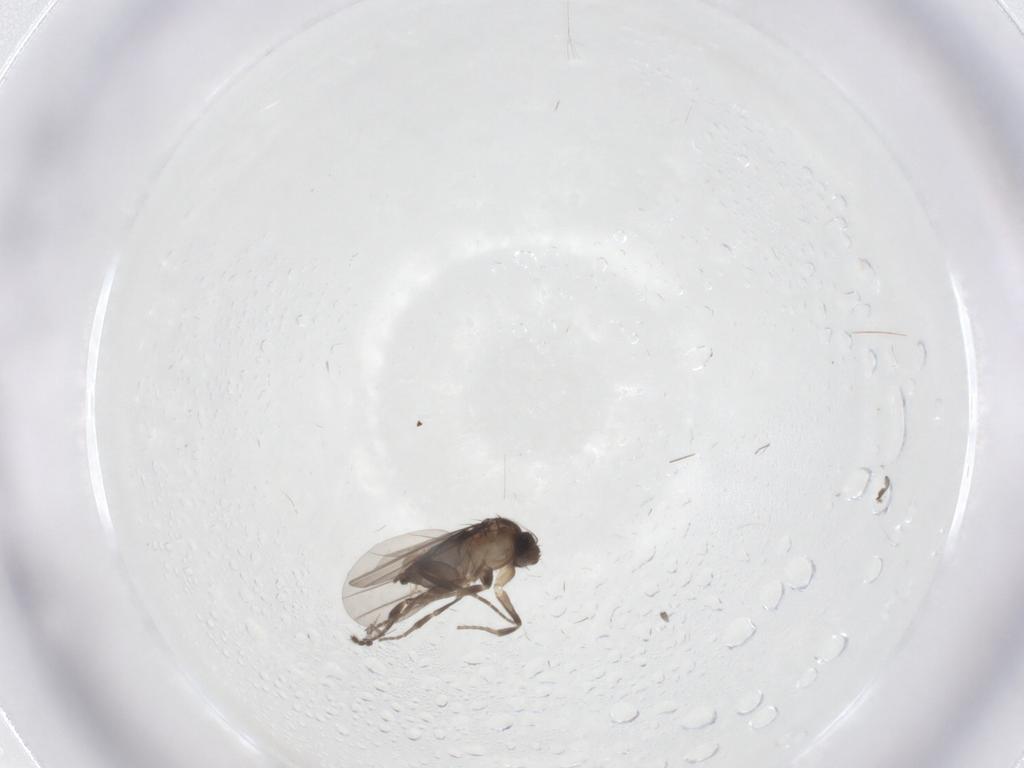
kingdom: Animalia
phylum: Arthropoda
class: Insecta
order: Diptera
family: Phoridae
